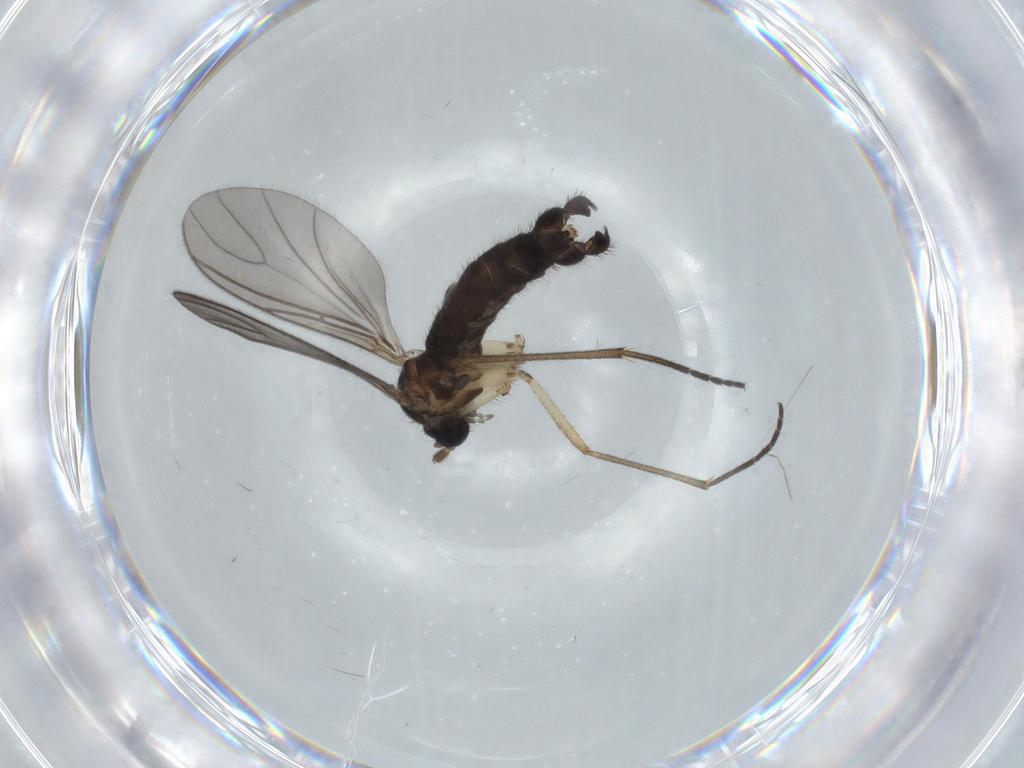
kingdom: Animalia
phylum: Arthropoda
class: Insecta
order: Diptera
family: Sciaridae
